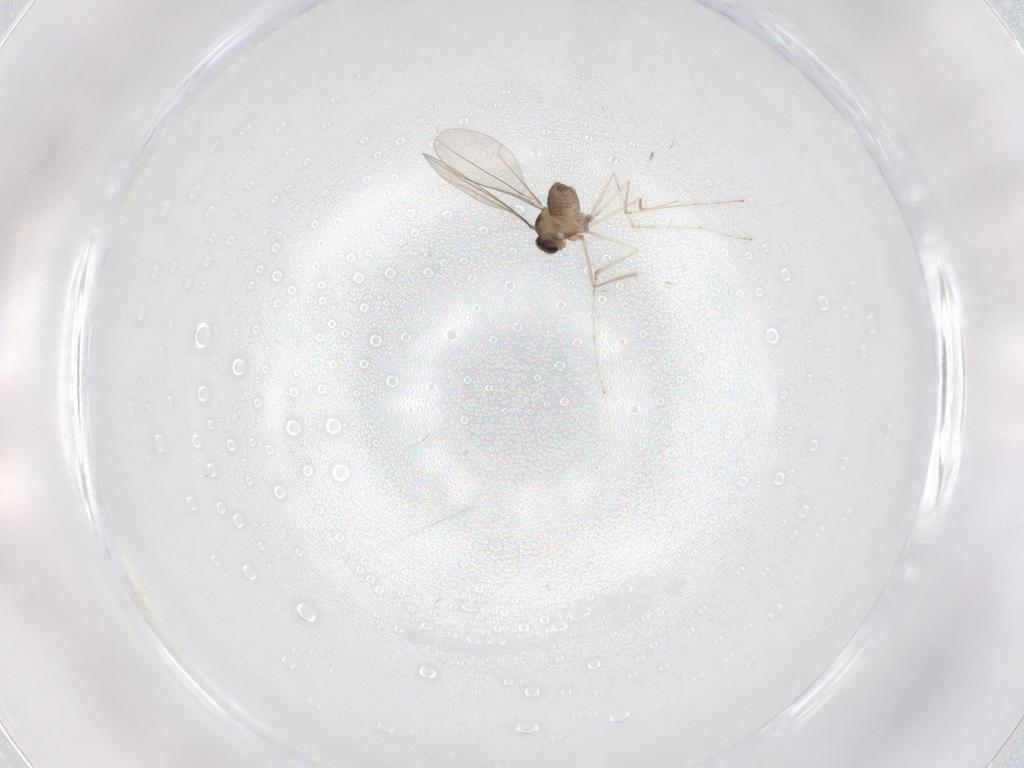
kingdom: Animalia
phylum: Arthropoda
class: Insecta
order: Diptera
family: Cecidomyiidae
